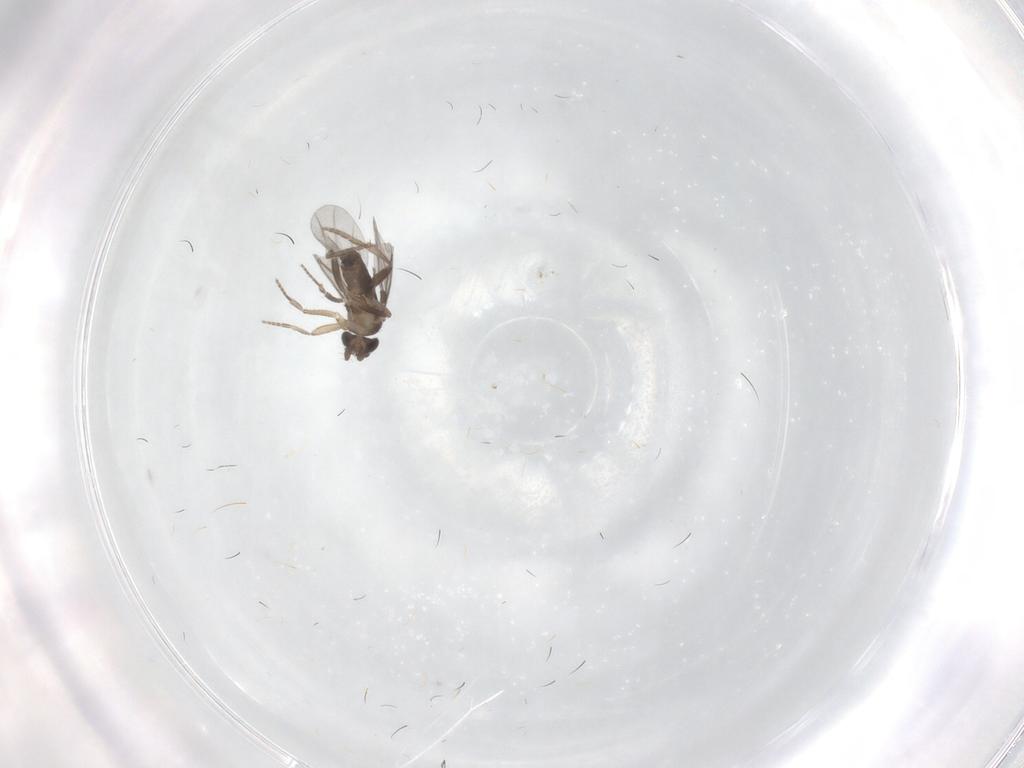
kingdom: Animalia
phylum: Arthropoda
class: Insecta
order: Diptera
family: Cecidomyiidae
